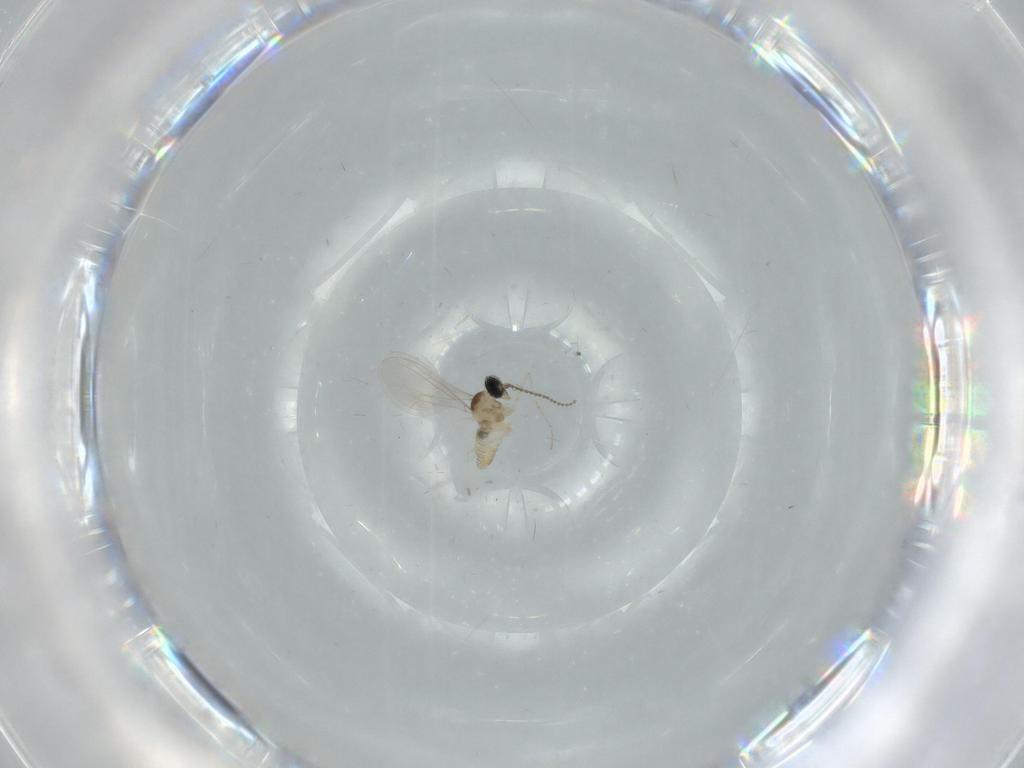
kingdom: Animalia
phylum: Arthropoda
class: Insecta
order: Diptera
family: Cecidomyiidae
